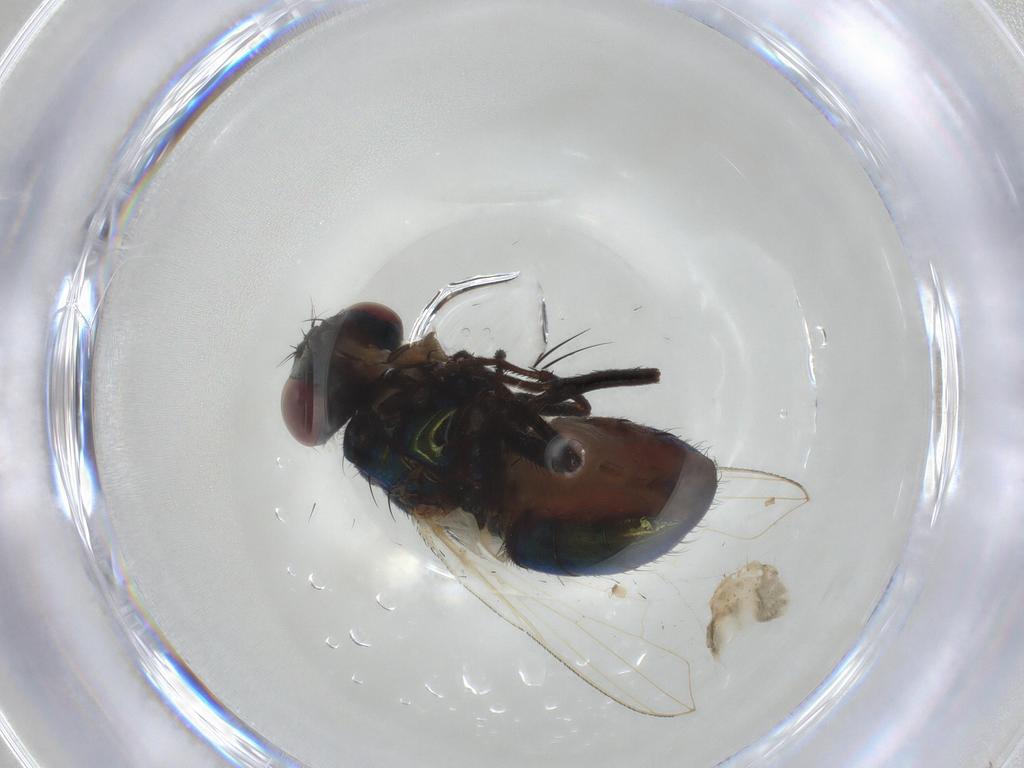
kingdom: Animalia
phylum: Arthropoda
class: Insecta
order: Diptera
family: Muscidae
